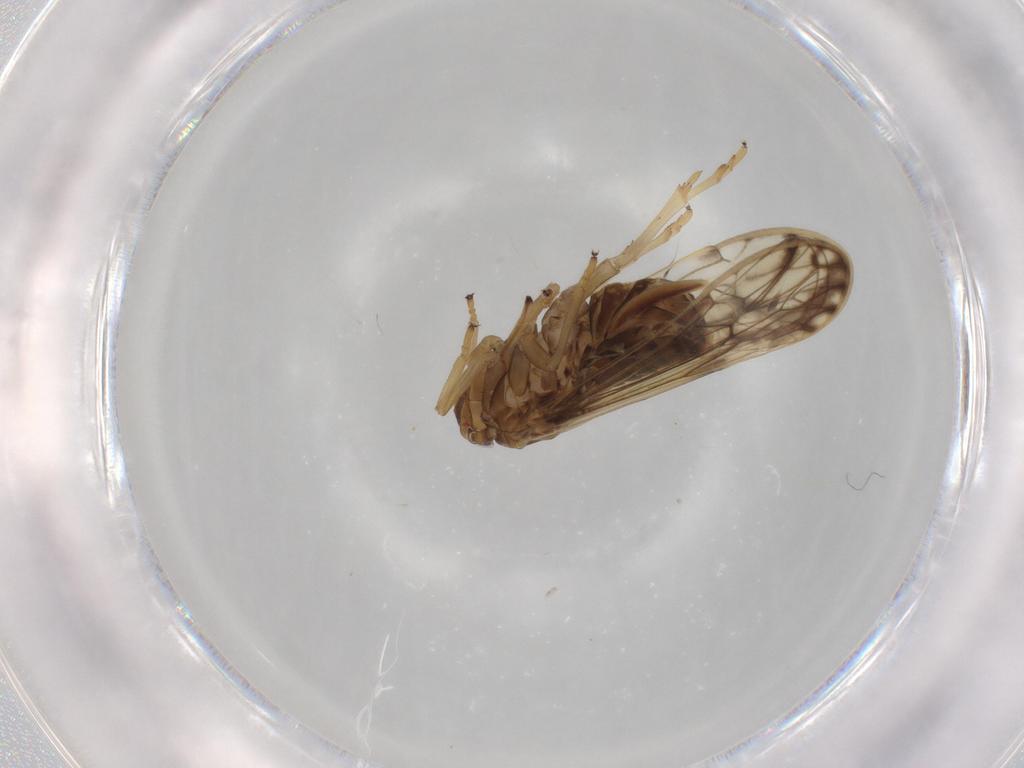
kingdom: Animalia
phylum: Arthropoda
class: Insecta
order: Hemiptera
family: Delphacidae
